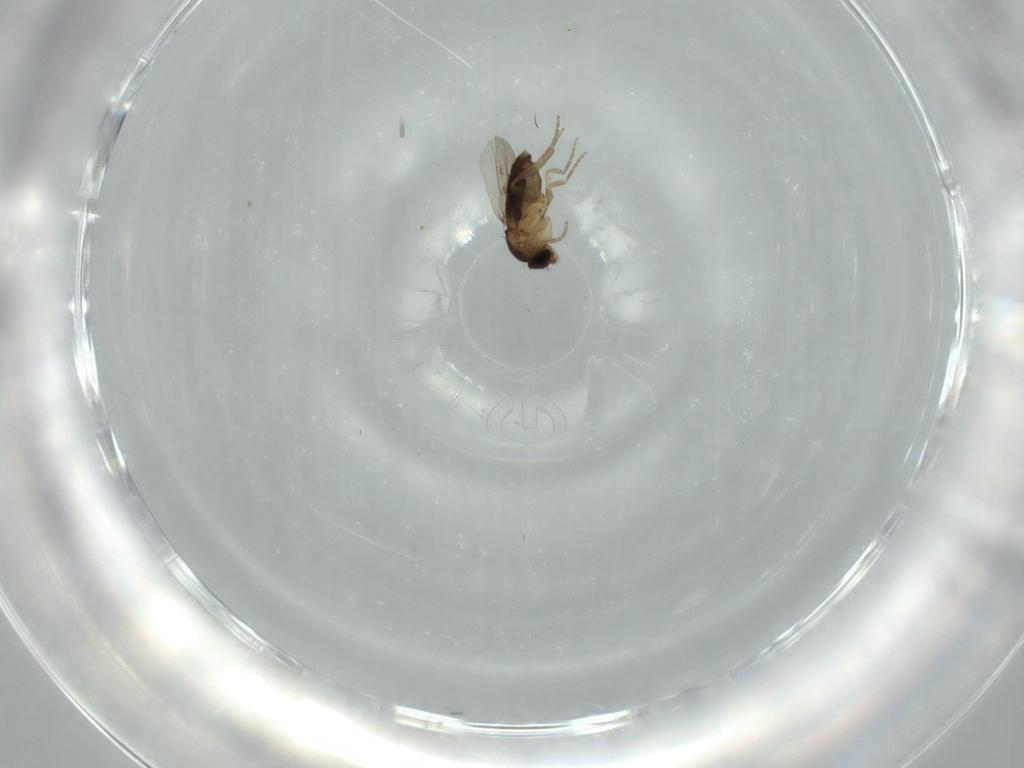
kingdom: Animalia
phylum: Arthropoda
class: Insecta
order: Diptera
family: Phoridae
